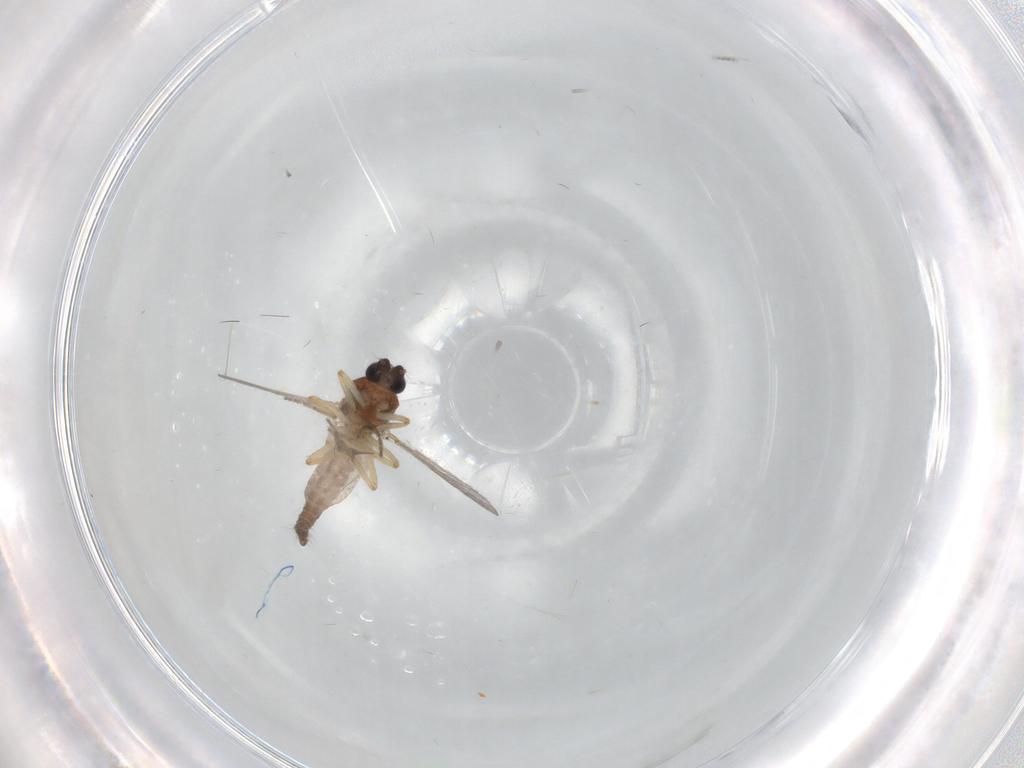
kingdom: Animalia
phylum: Arthropoda
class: Insecta
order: Diptera
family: Ceratopogonidae
